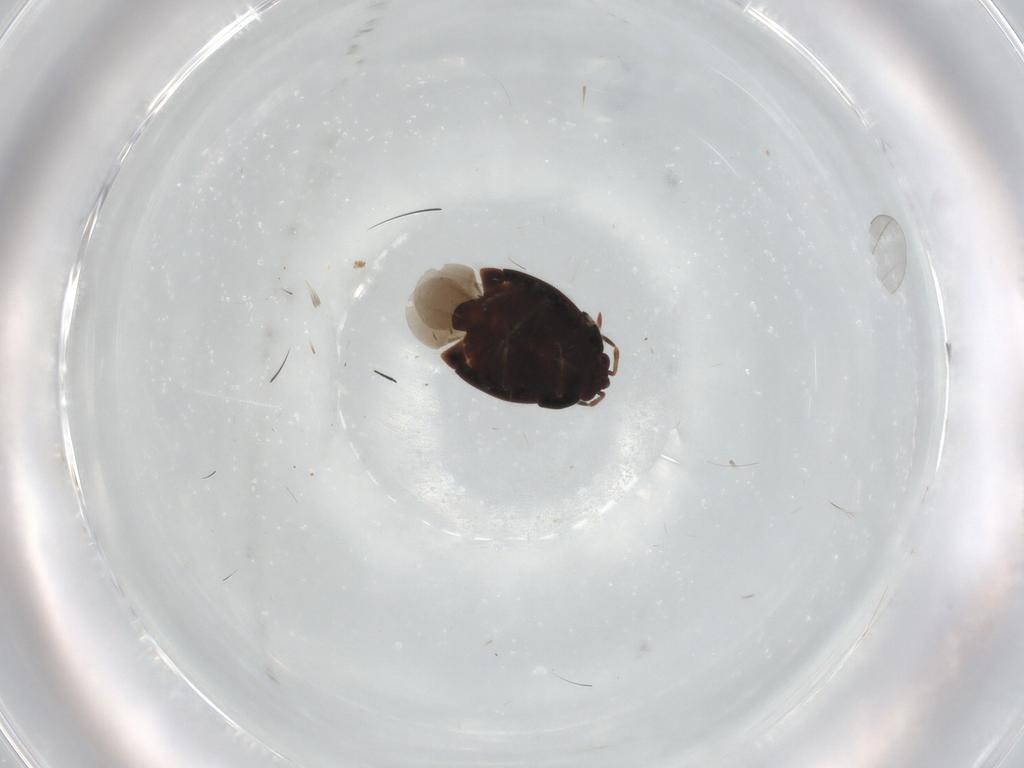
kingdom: Animalia
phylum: Arthropoda
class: Insecta
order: Hemiptera
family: Anthocoridae
